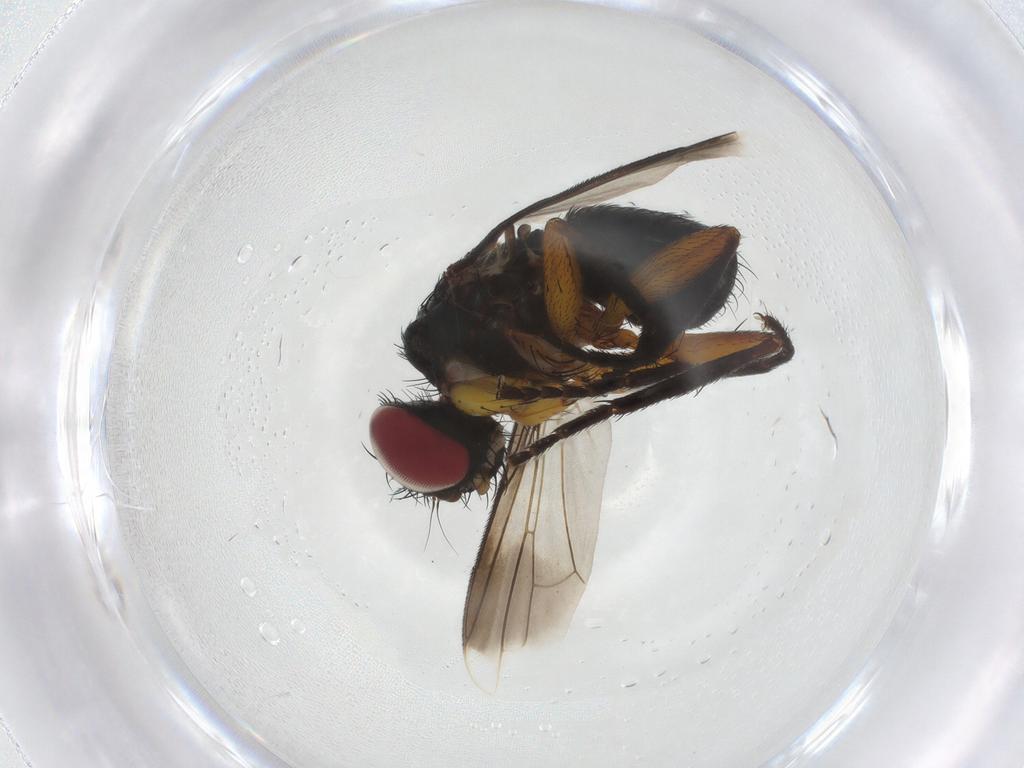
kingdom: Animalia
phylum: Arthropoda
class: Insecta
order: Diptera
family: Tachinidae
